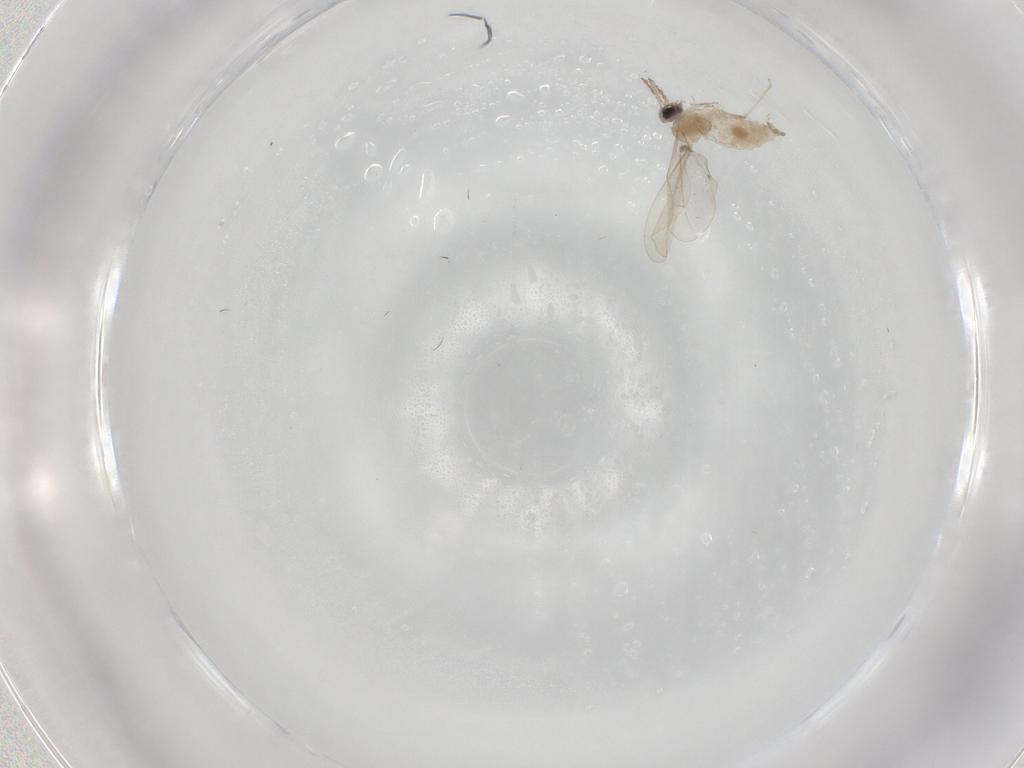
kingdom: Animalia
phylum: Arthropoda
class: Insecta
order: Diptera
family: Cecidomyiidae
